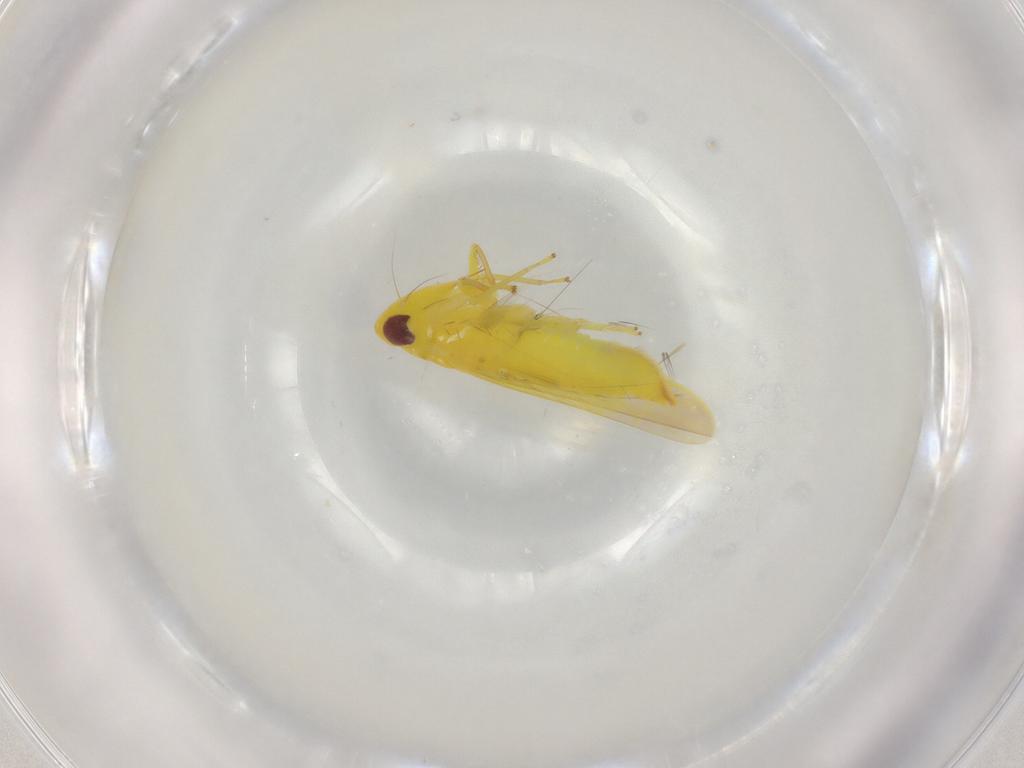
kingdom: Animalia
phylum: Arthropoda
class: Insecta
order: Hemiptera
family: Cicadellidae
